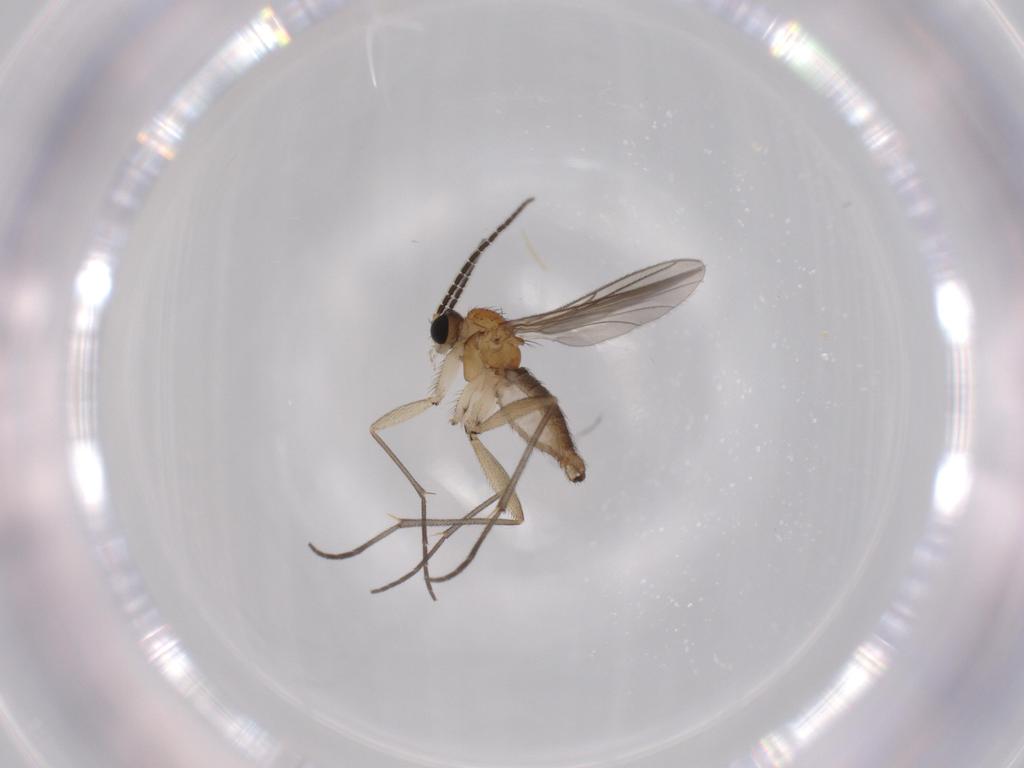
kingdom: Animalia
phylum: Arthropoda
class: Insecta
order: Diptera
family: Sciaridae
